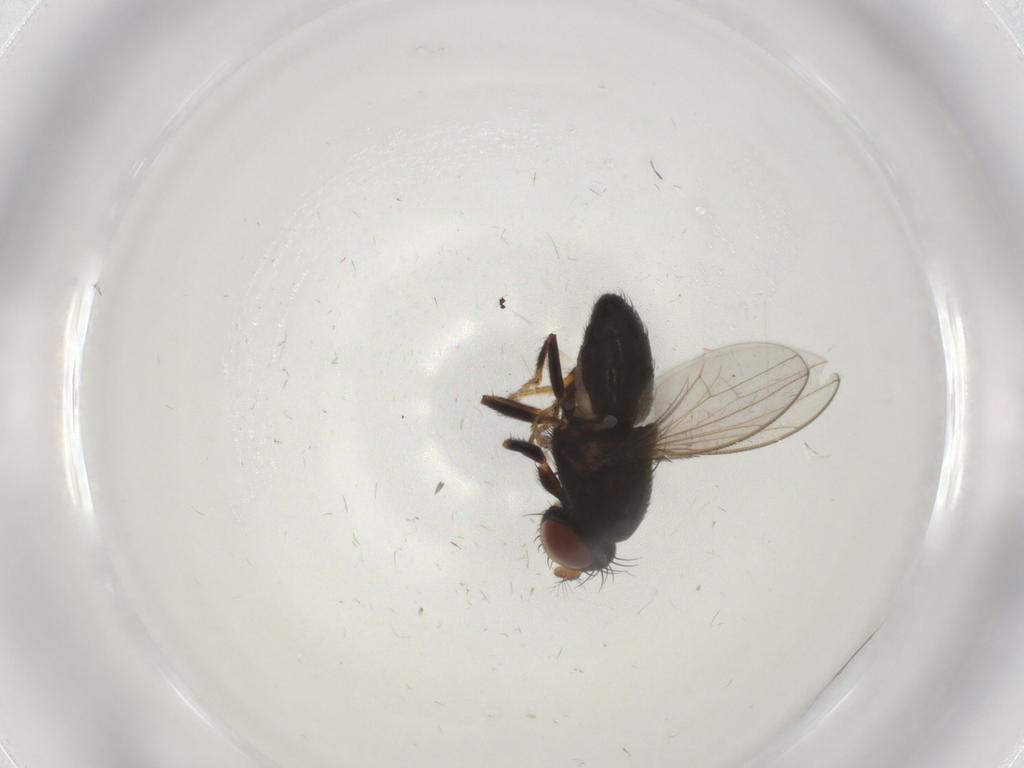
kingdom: Animalia
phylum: Arthropoda
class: Insecta
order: Diptera
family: Chironomidae
